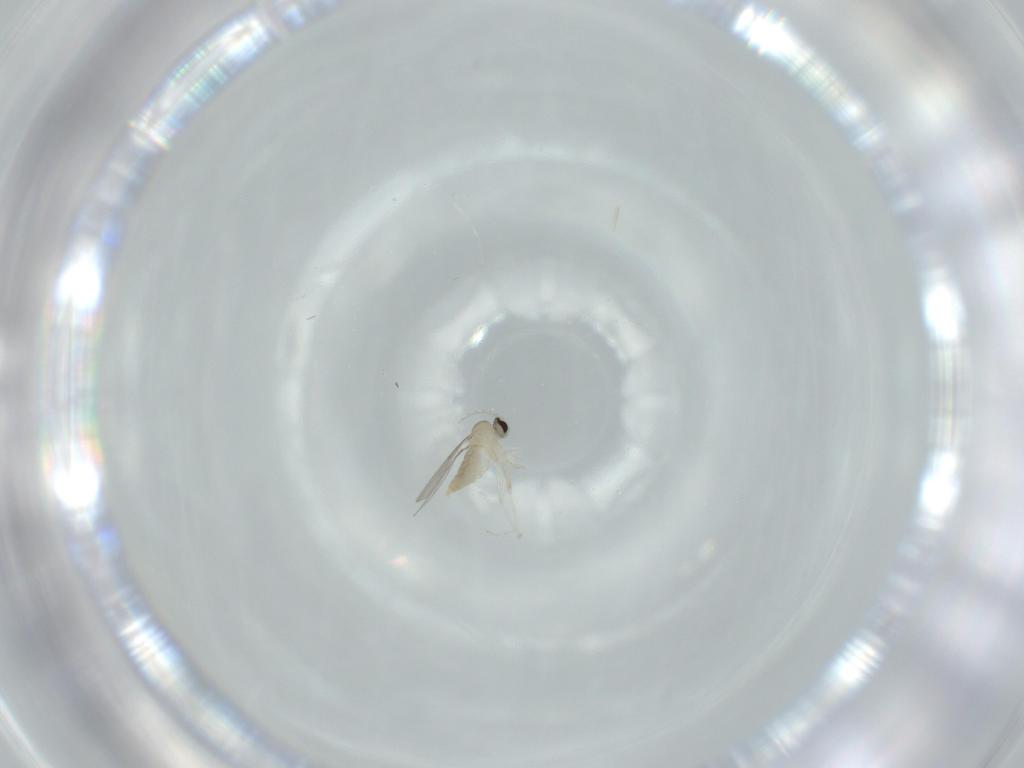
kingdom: Animalia
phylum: Arthropoda
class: Insecta
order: Diptera
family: Cecidomyiidae
